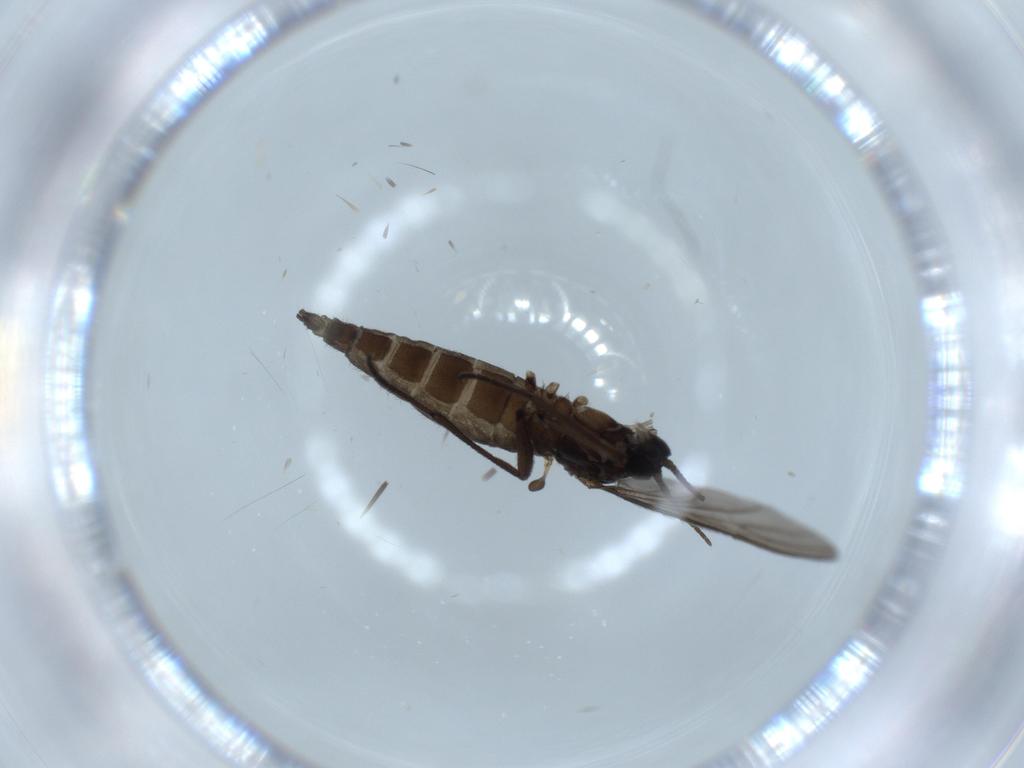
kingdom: Animalia
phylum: Arthropoda
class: Insecta
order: Diptera
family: Sciaridae
